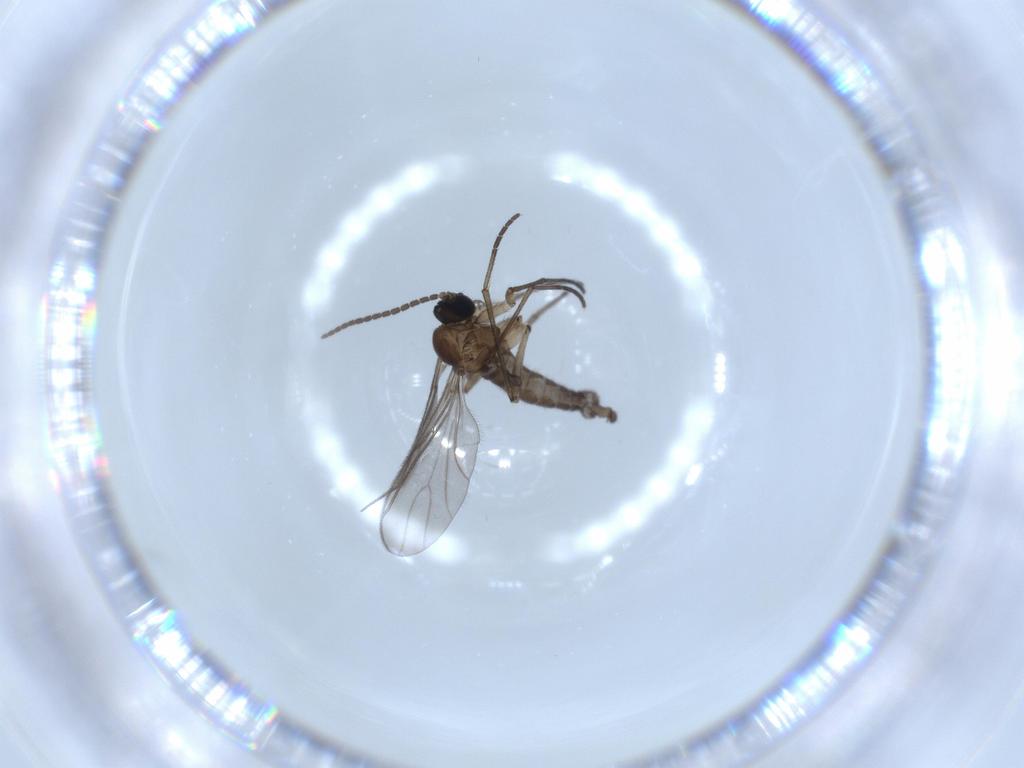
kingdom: Animalia
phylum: Arthropoda
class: Insecta
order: Diptera
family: Sciaridae
